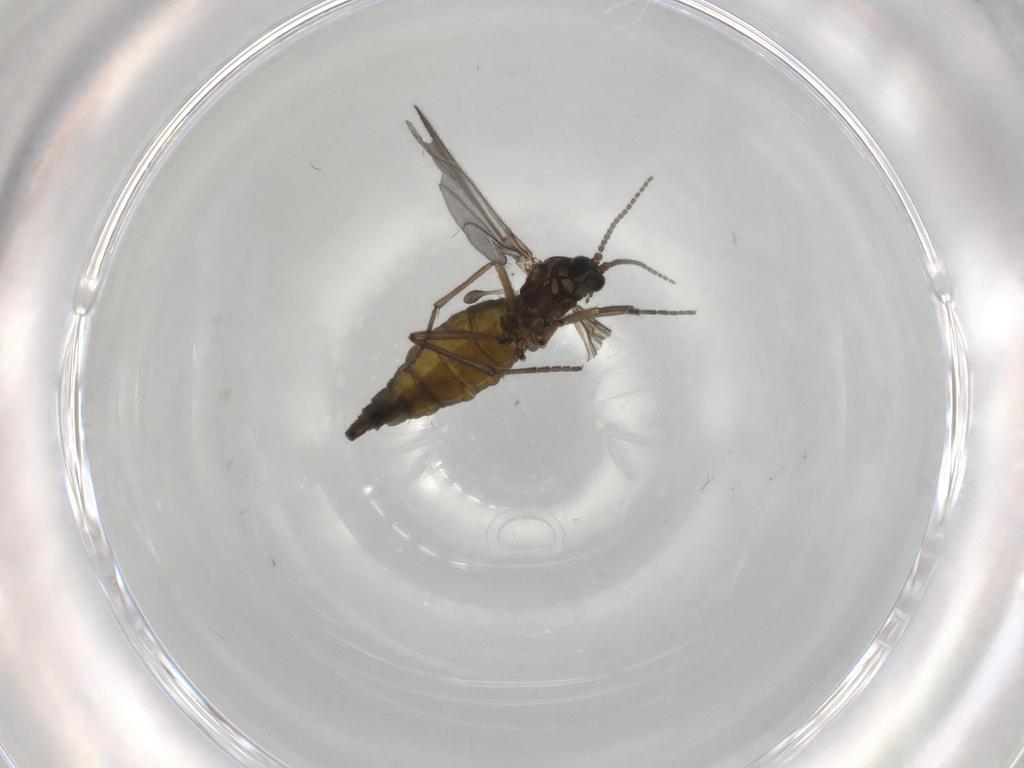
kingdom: Animalia
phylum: Arthropoda
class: Insecta
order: Diptera
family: Sciaridae
